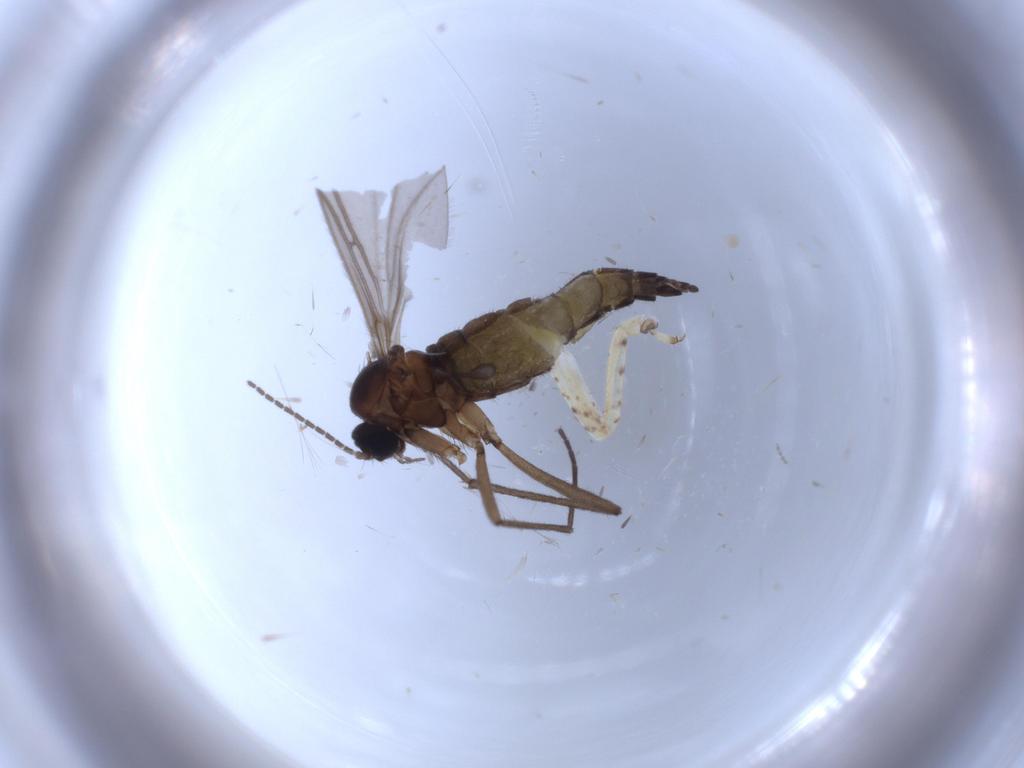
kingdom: Animalia
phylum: Arthropoda
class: Insecta
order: Diptera
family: Sciaridae
